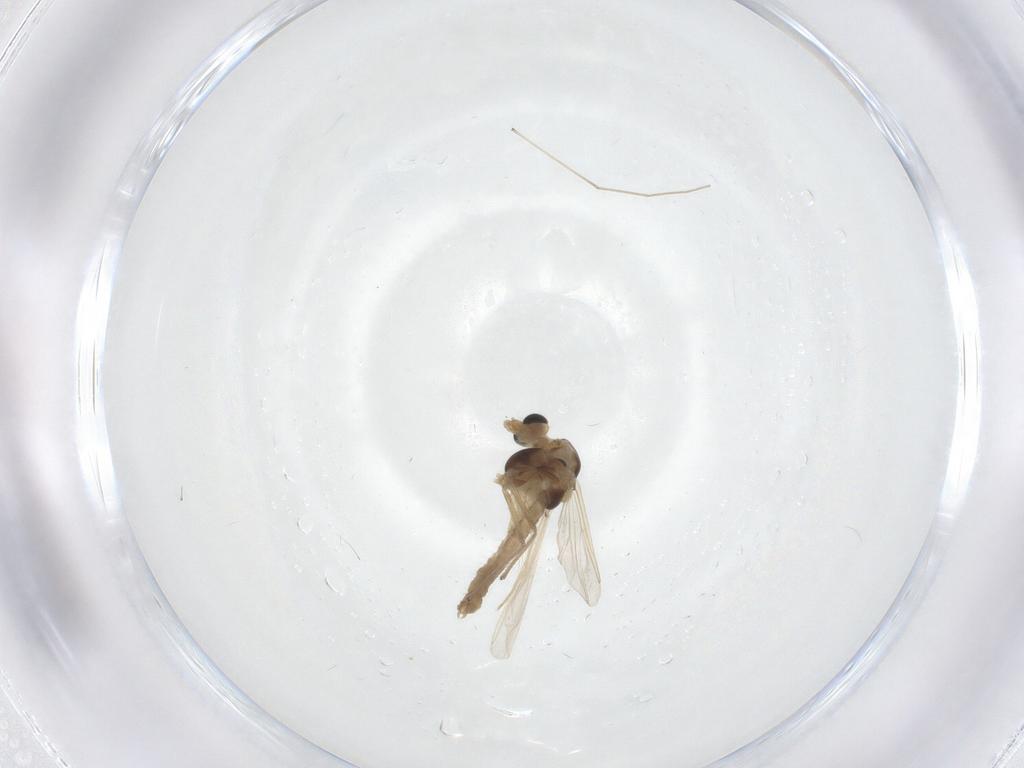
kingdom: Animalia
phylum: Arthropoda
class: Insecta
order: Diptera
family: Chironomidae
